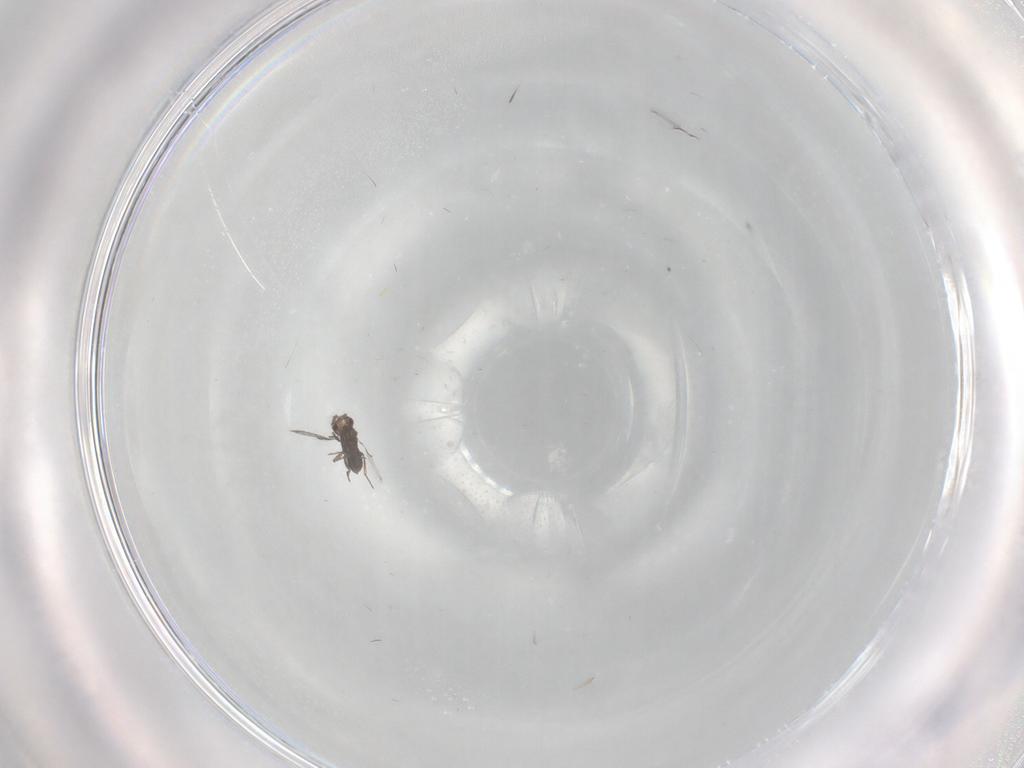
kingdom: Animalia
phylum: Arthropoda
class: Insecta
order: Hymenoptera
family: Trichogrammatidae
